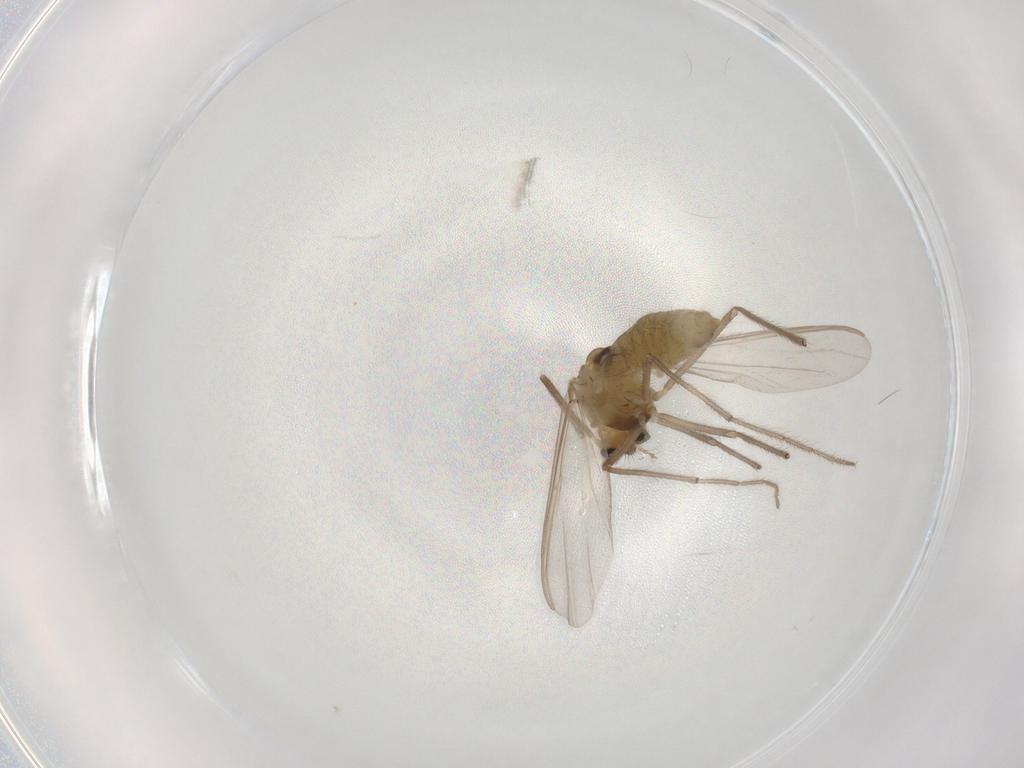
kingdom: Animalia
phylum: Arthropoda
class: Insecta
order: Diptera
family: Chironomidae
